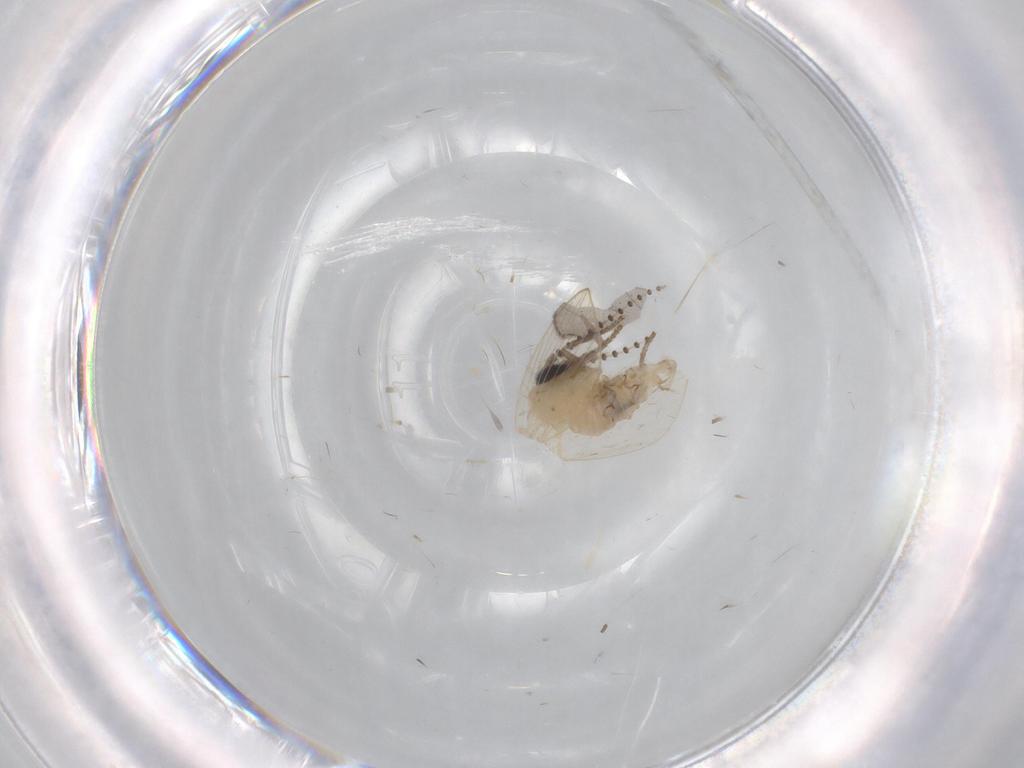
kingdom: Animalia
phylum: Arthropoda
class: Insecta
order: Diptera
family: Psychodidae
